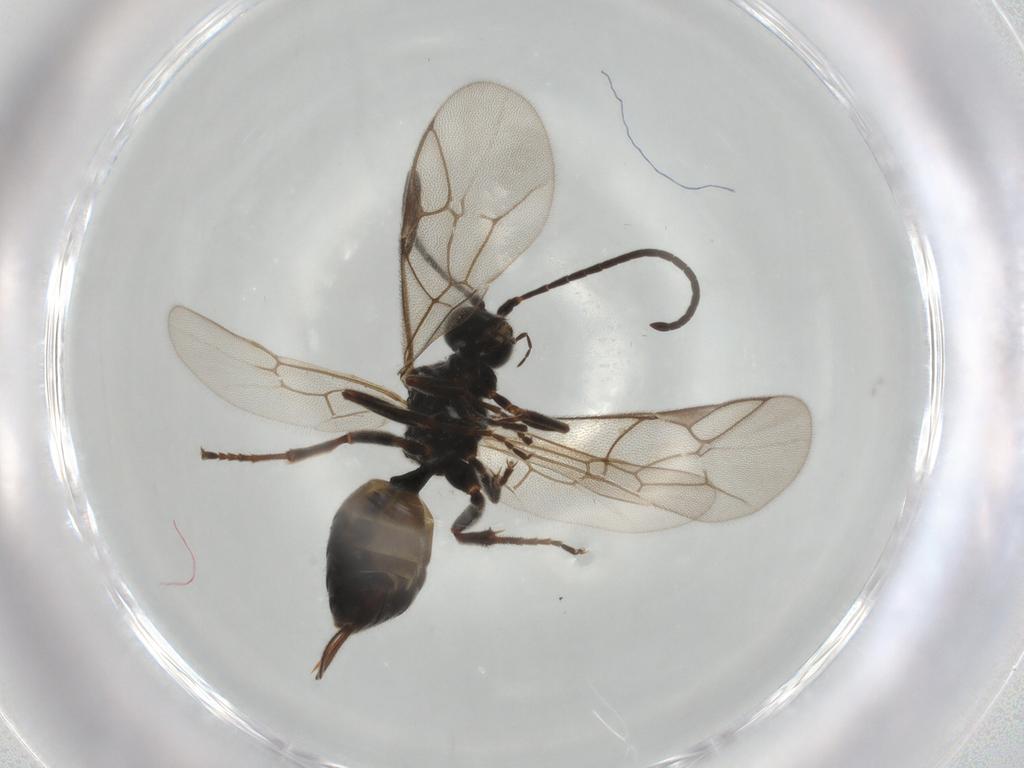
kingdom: Animalia
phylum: Arthropoda
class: Insecta
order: Hymenoptera
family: Ichneumonidae
